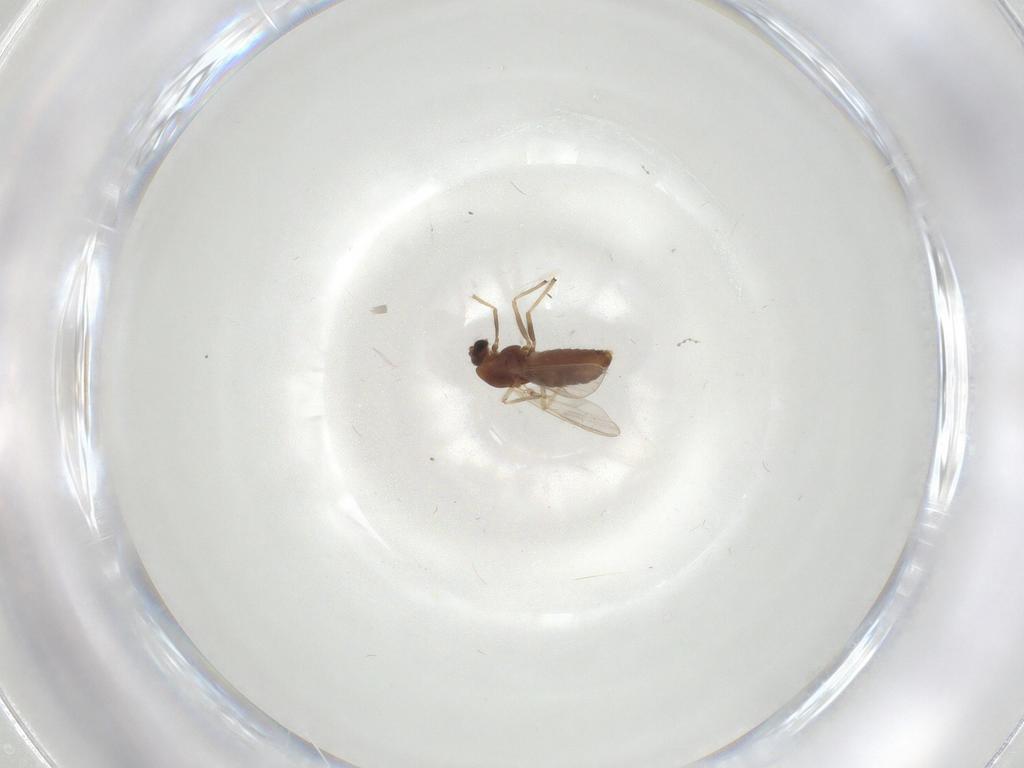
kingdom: Animalia
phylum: Arthropoda
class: Insecta
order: Diptera
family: Chironomidae
